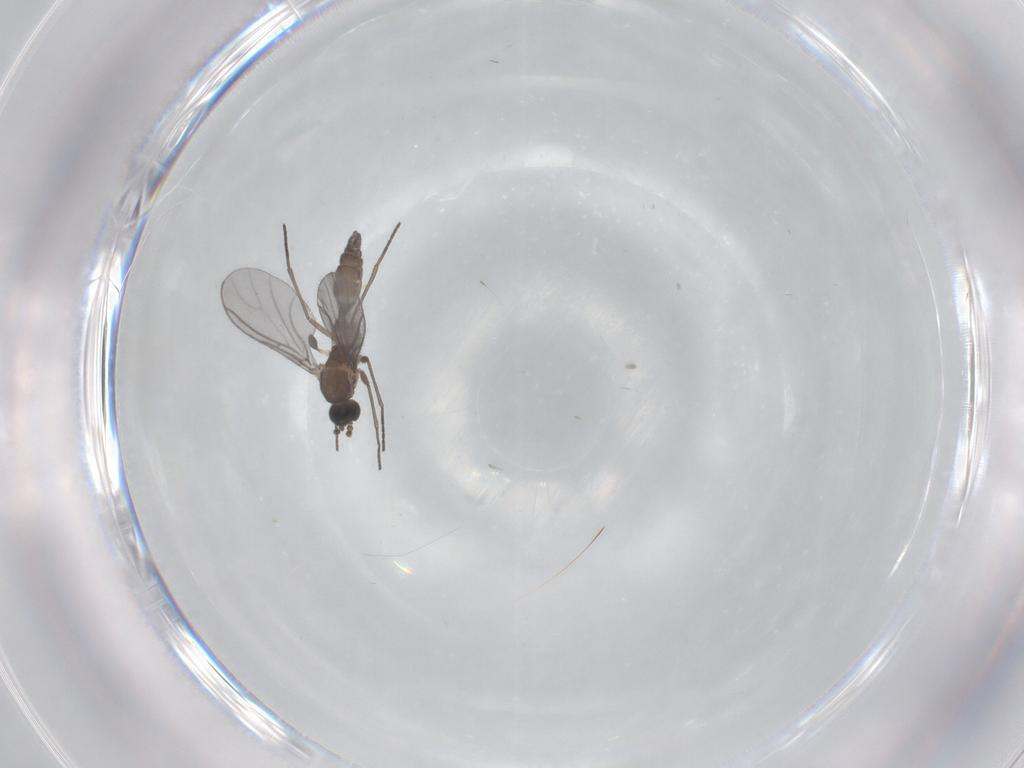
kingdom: Animalia
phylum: Arthropoda
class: Insecta
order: Diptera
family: Sciaridae
